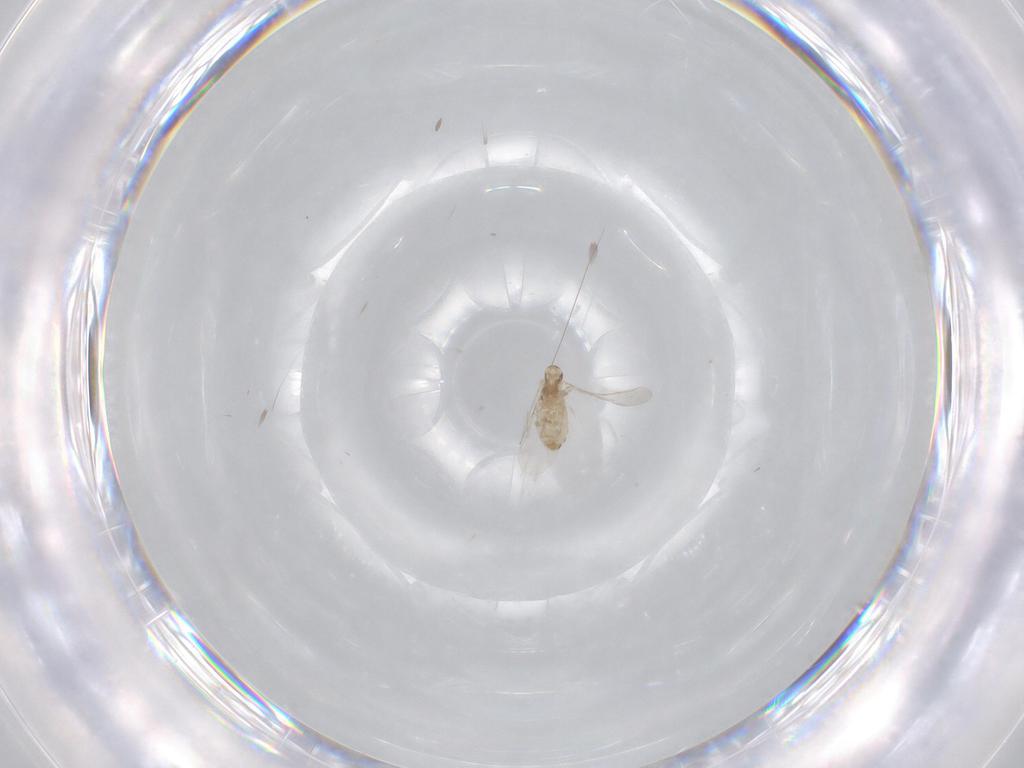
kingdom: Animalia
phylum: Arthropoda
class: Insecta
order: Diptera
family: Cecidomyiidae
